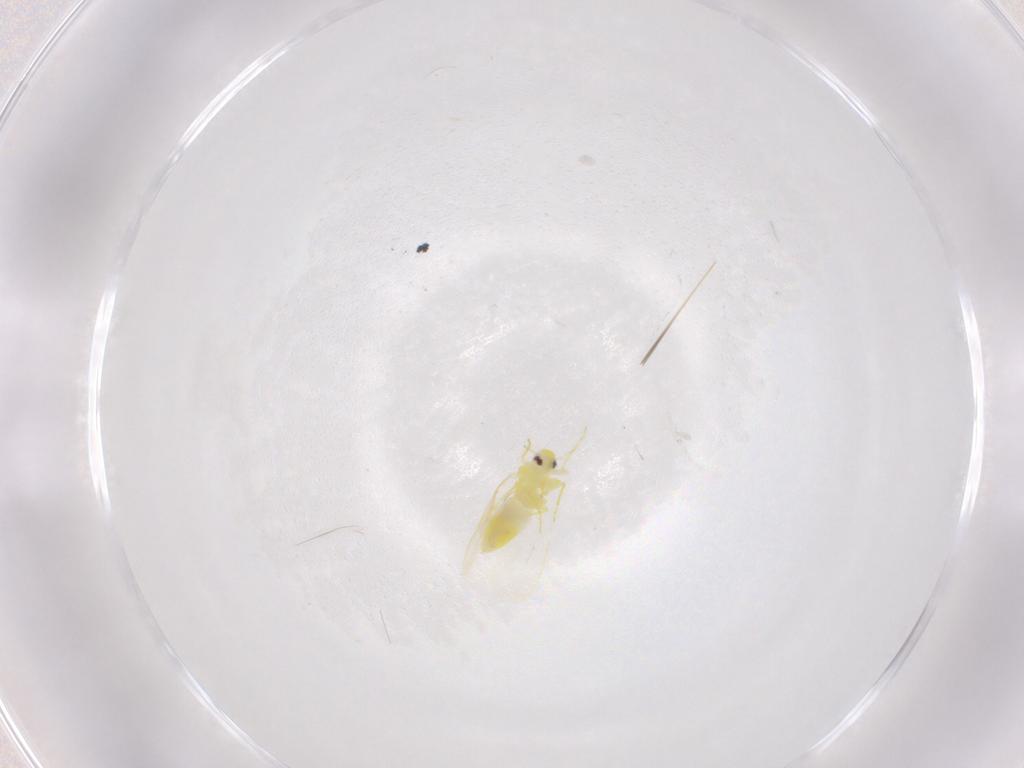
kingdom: Animalia
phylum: Arthropoda
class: Insecta
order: Hemiptera
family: Aleyrodidae
